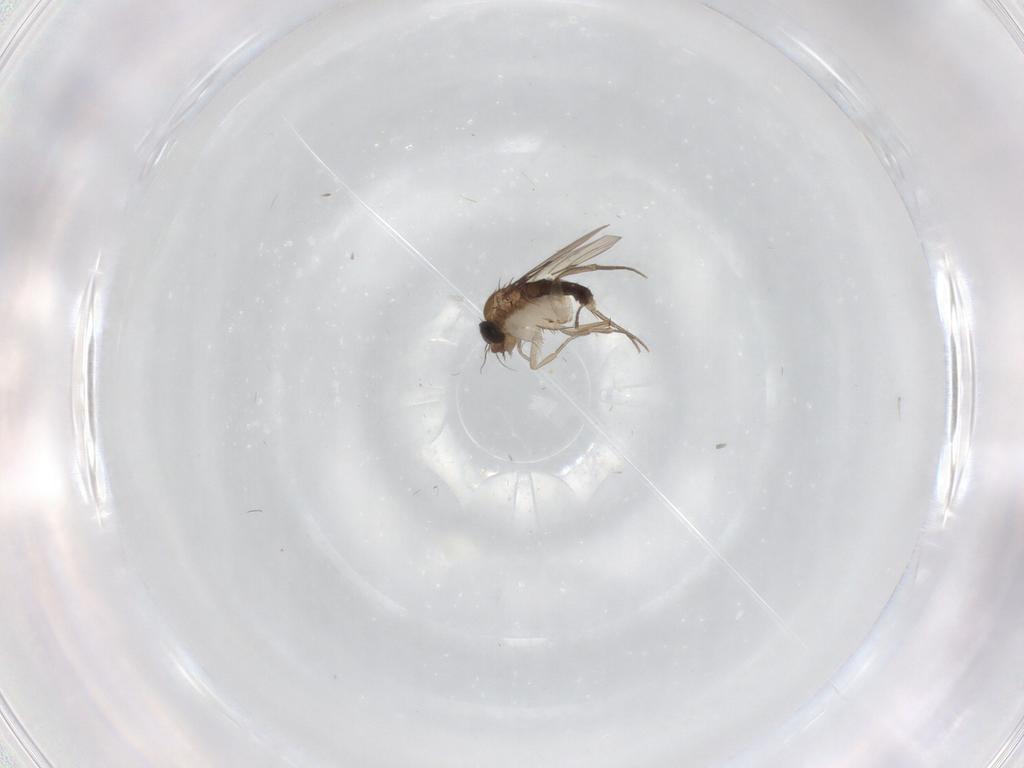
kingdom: Animalia
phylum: Arthropoda
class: Insecta
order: Diptera
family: Phoridae
